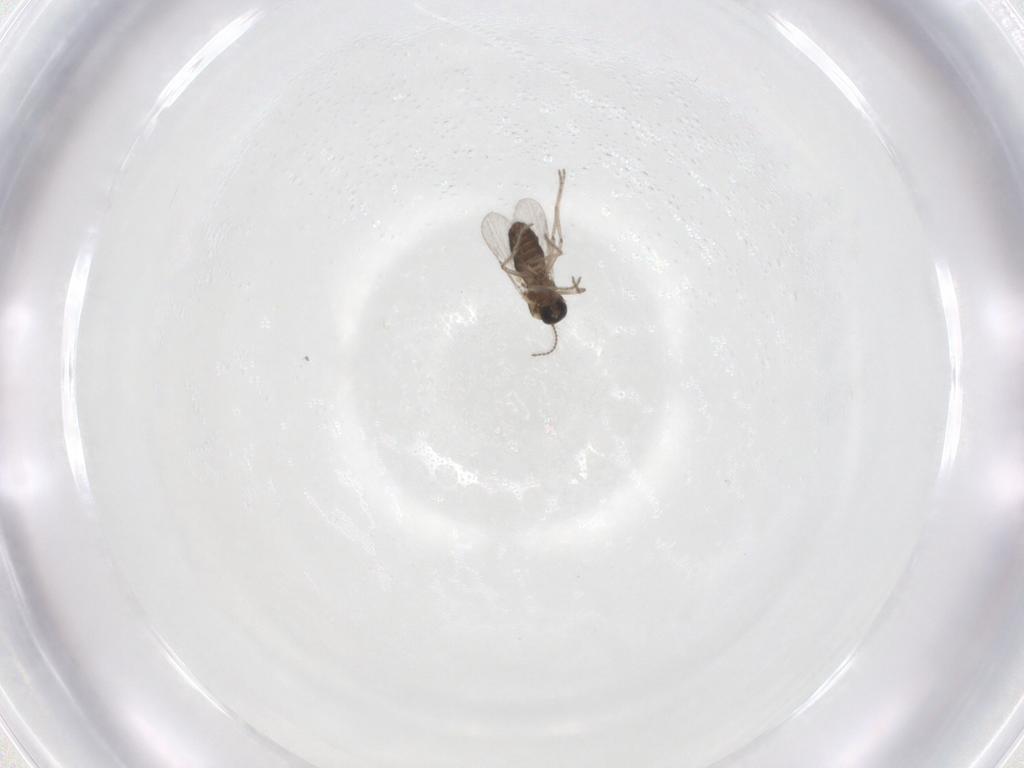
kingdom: Animalia
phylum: Arthropoda
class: Insecta
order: Diptera
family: Ceratopogonidae
